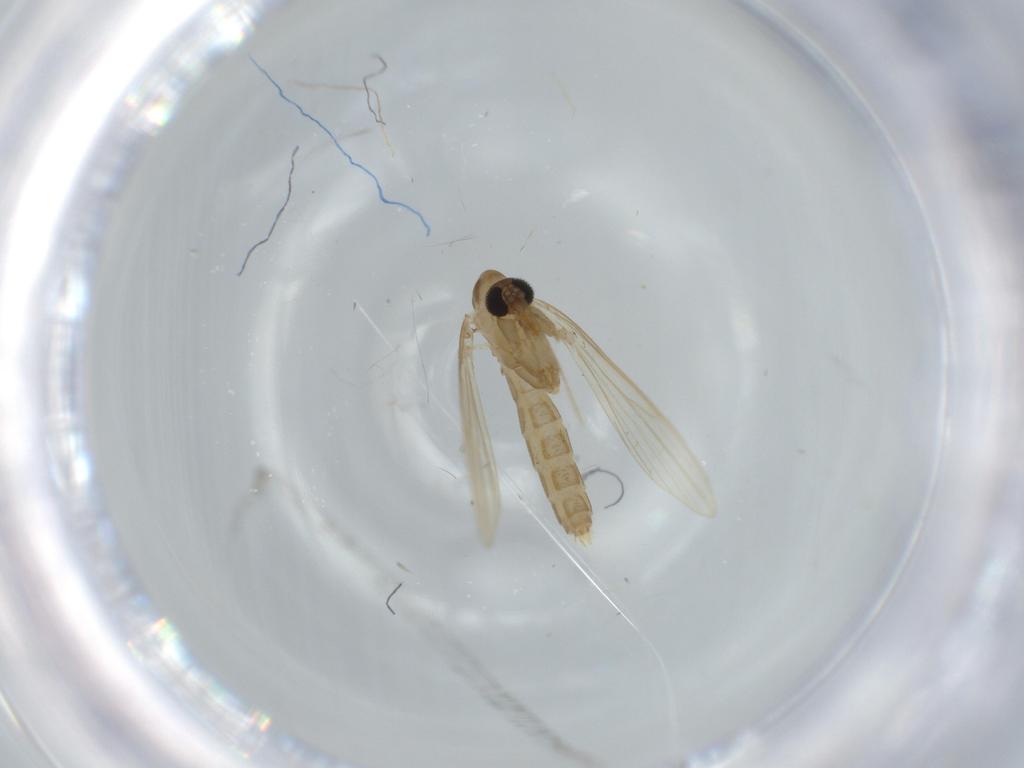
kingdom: Animalia
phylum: Arthropoda
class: Insecta
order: Diptera
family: Psychodidae
